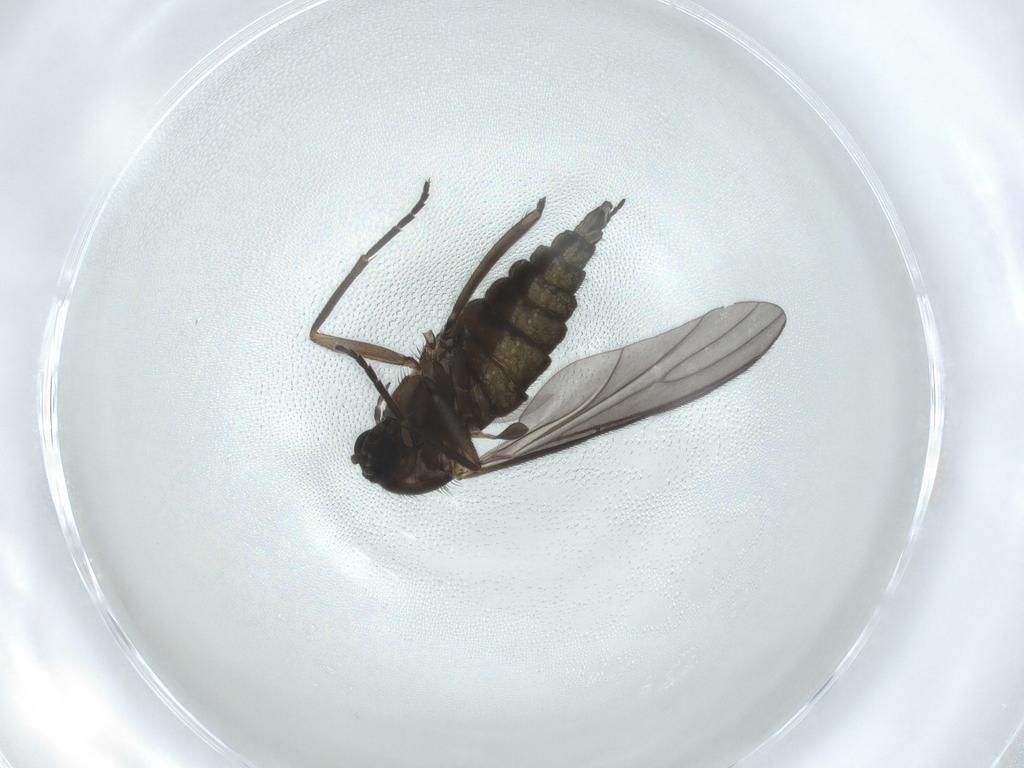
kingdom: Animalia
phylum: Arthropoda
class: Insecta
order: Diptera
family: Sciaridae
